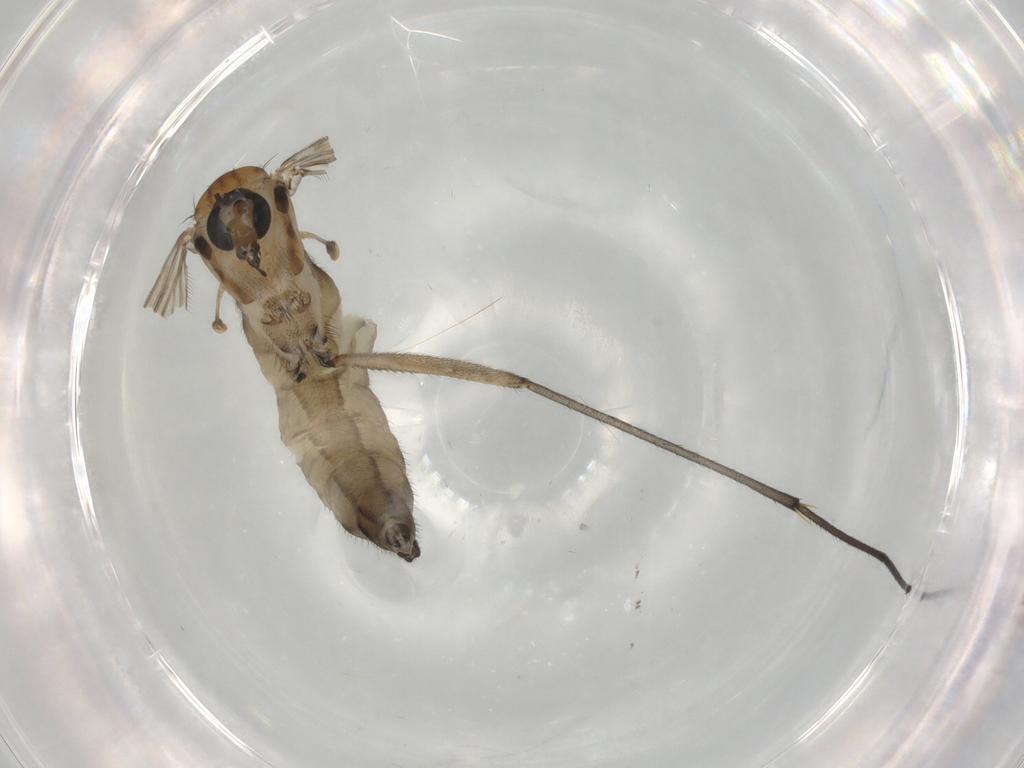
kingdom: Animalia
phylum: Arthropoda
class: Insecta
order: Diptera
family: Sciaridae
